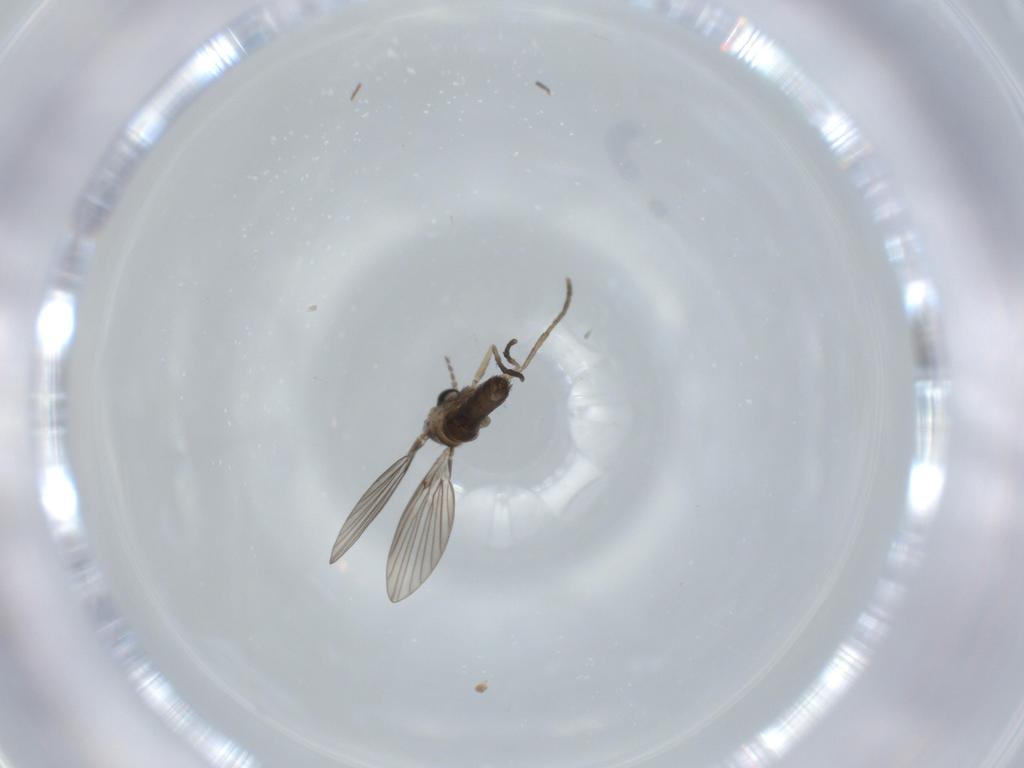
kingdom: Animalia
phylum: Arthropoda
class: Insecta
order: Diptera
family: Psychodidae
